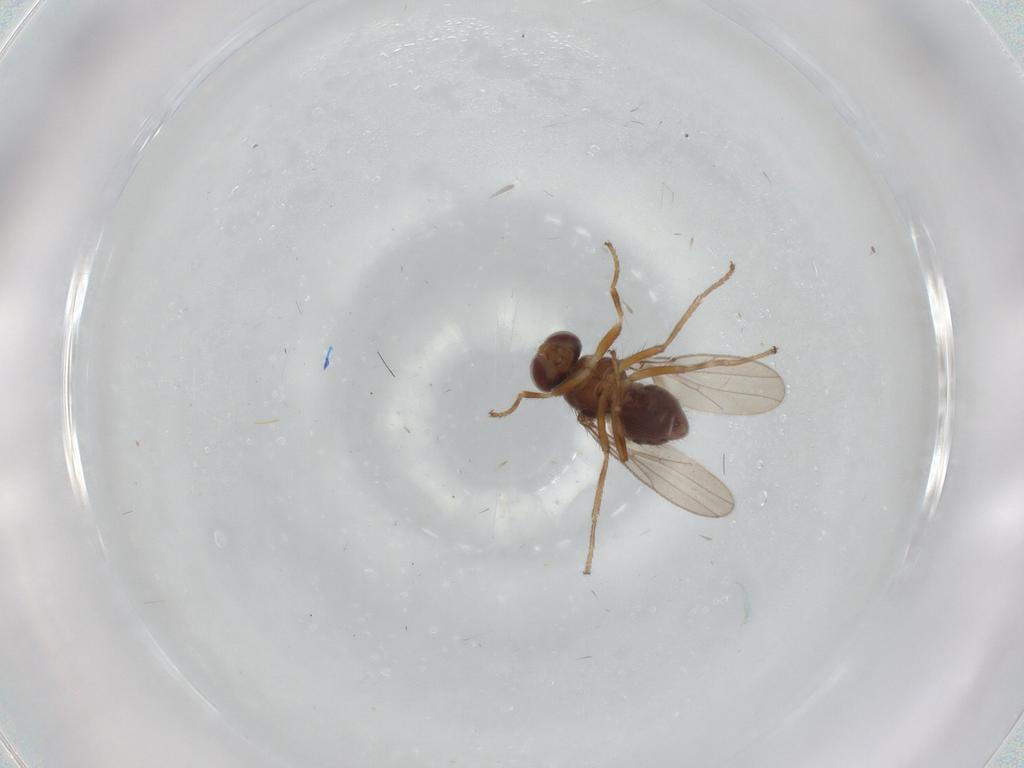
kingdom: Animalia
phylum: Arthropoda
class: Insecta
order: Diptera
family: Ephydridae
